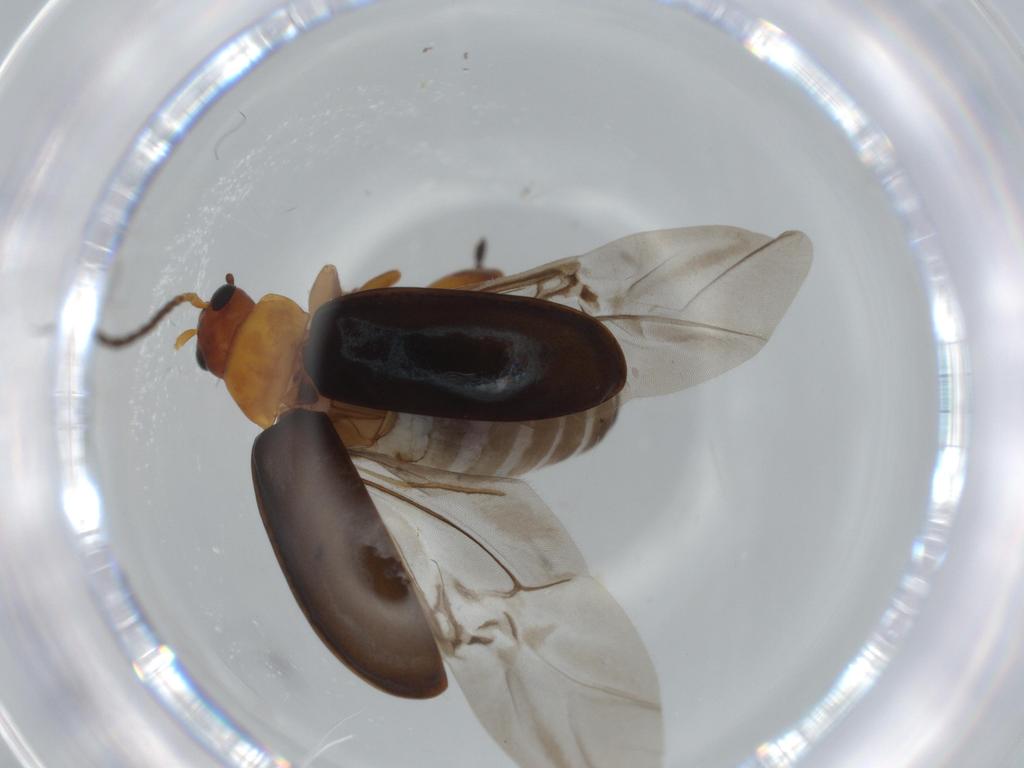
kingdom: Animalia
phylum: Arthropoda
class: Insecta
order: Coleoptera
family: Chrysomelidae
